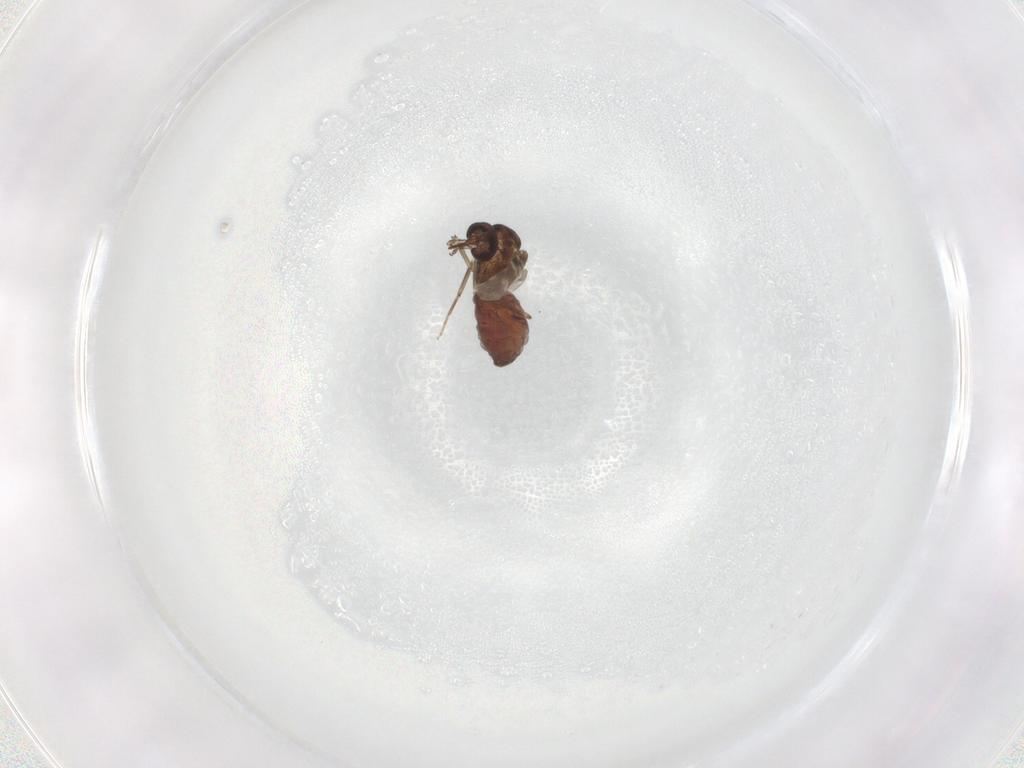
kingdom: Animalia
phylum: Arthropoda
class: Insecta
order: Diptera
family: Ceratopogonidae
